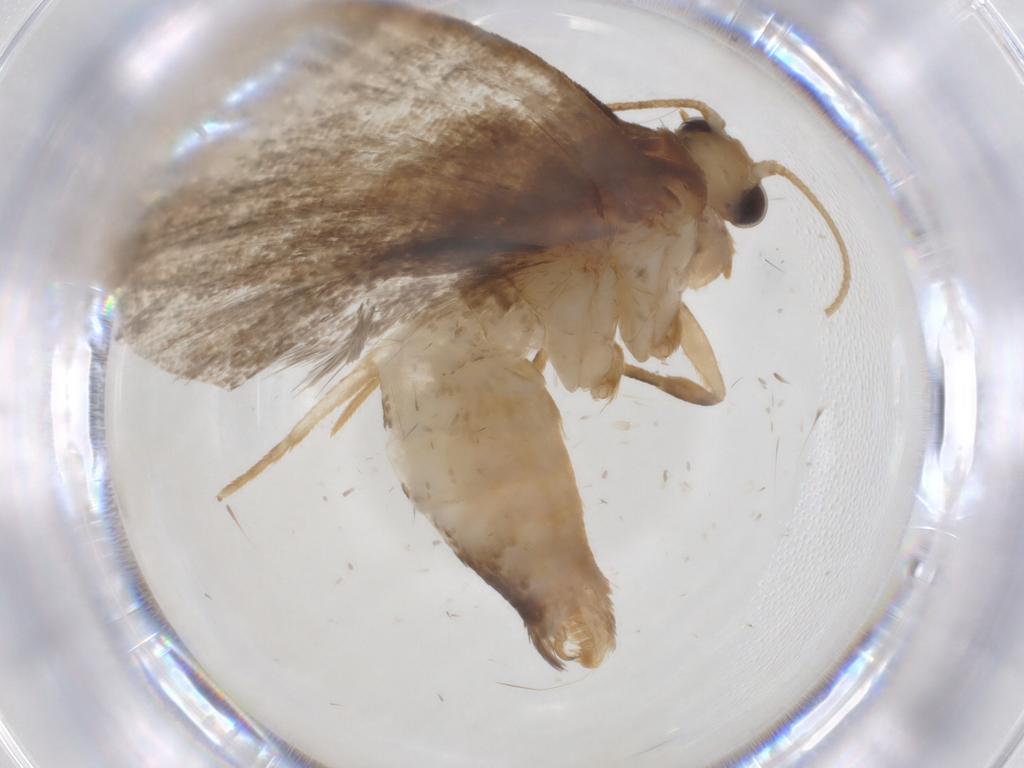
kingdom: Animalia
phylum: Arthropoda
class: Insecta
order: Lepidoptera
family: Geometridae
